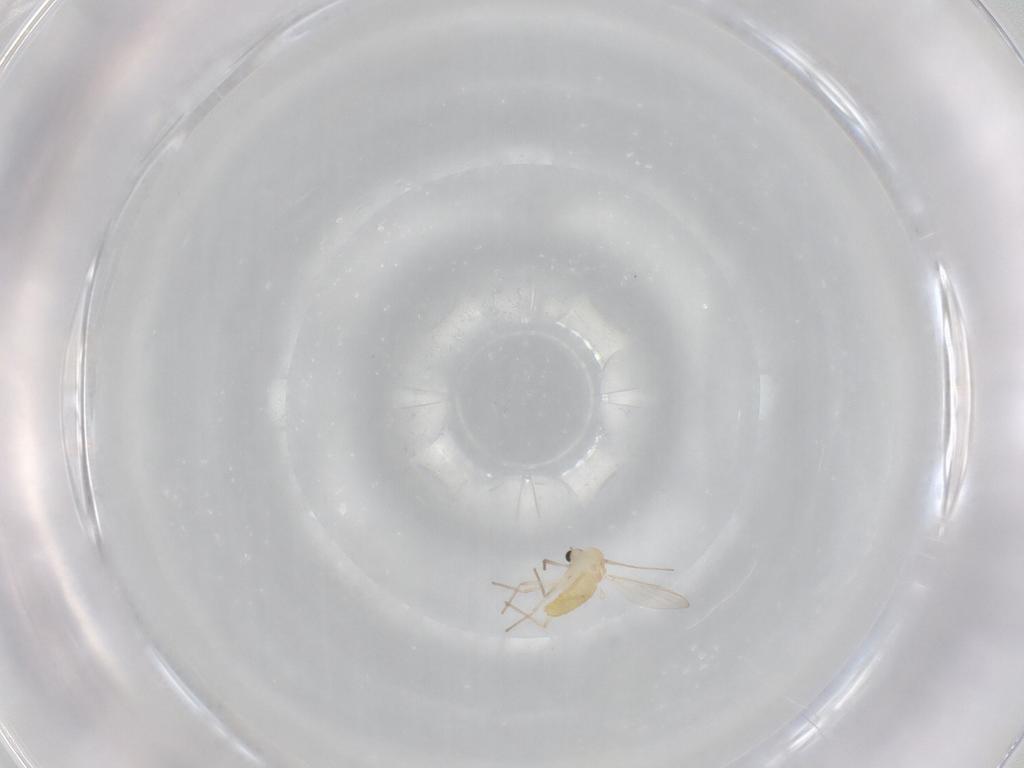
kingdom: Animalia
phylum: Arthropoda
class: Insecta
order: Diptera
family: Chironomidae
